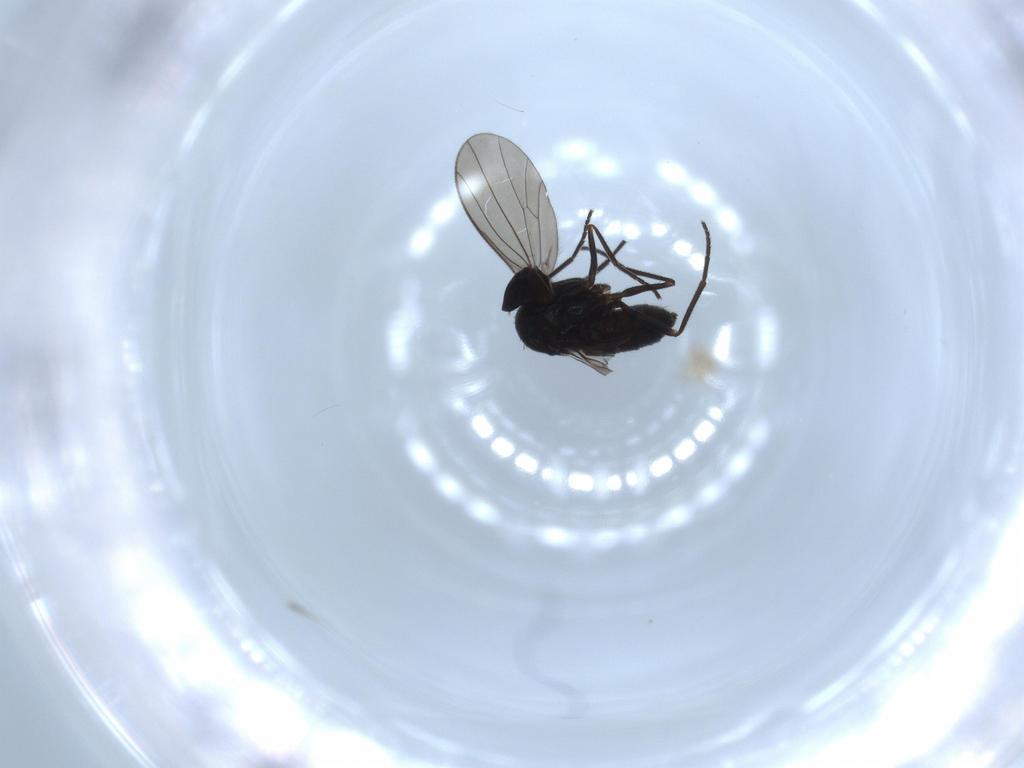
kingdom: Animalia
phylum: Arthropoda
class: Insecta
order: Diptera
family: Dolichopodidae
